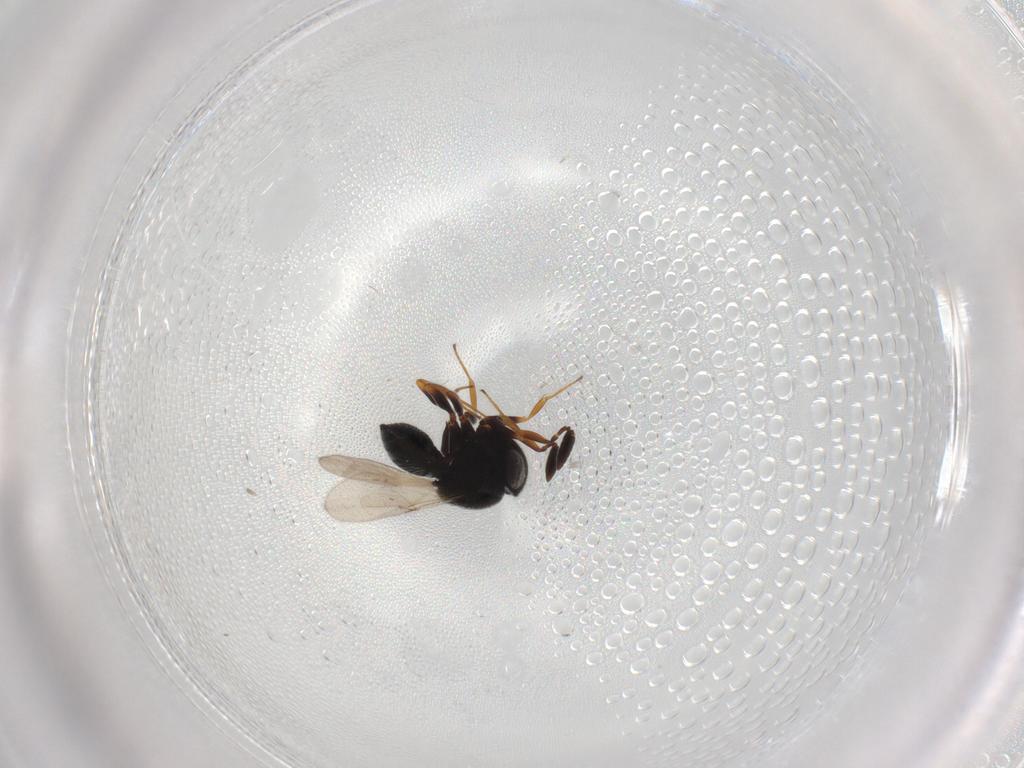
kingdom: Animalia
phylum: Arthropoda
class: Insecta
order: Hymenoptera
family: Scelionidae
